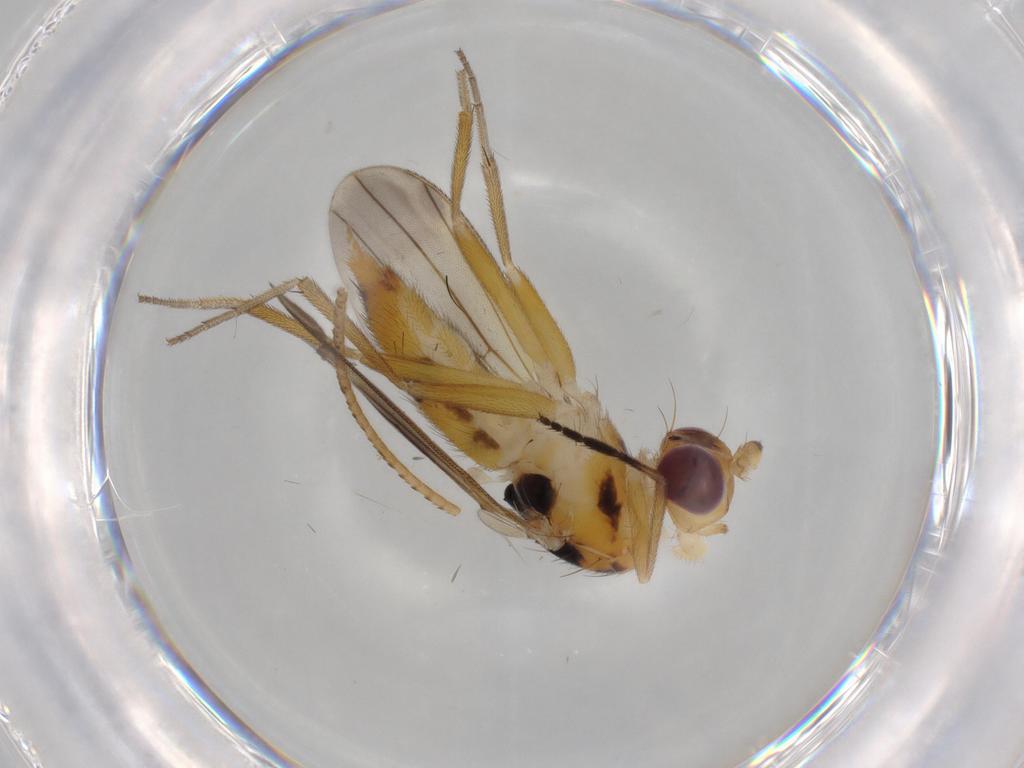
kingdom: Animalia
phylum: Arthropoda
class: Insecta
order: Diptera
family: Clusiidae
